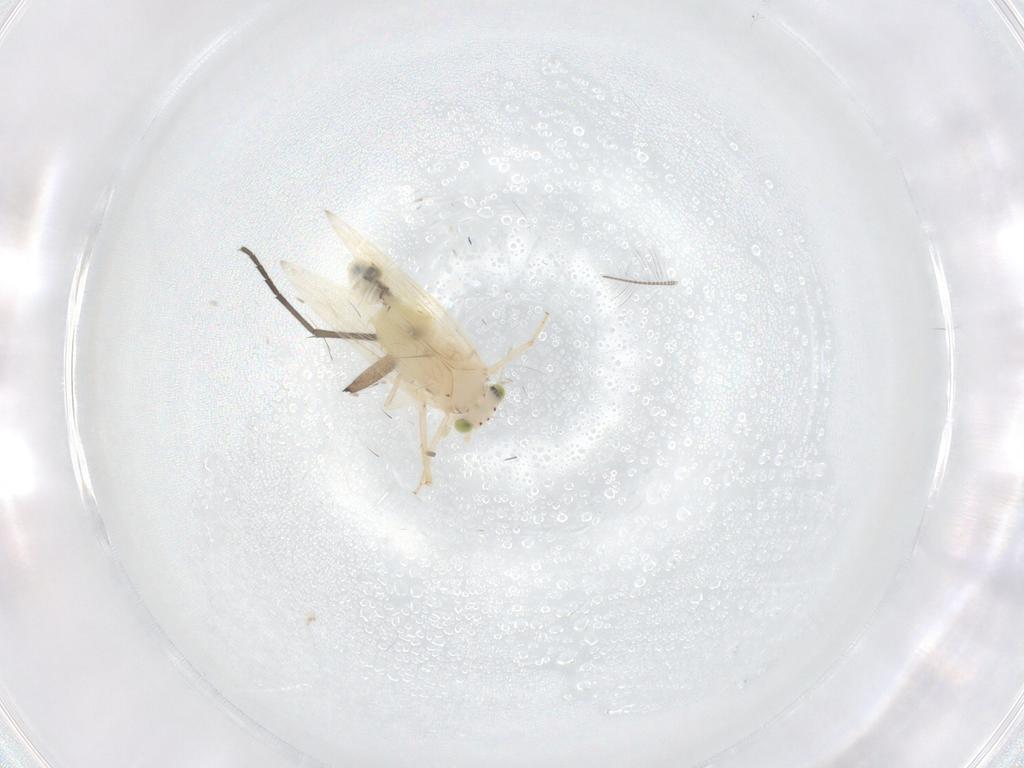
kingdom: Animalia
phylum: Arthropoda
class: Insecta
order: Psocodea
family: Lepidopsocidae
